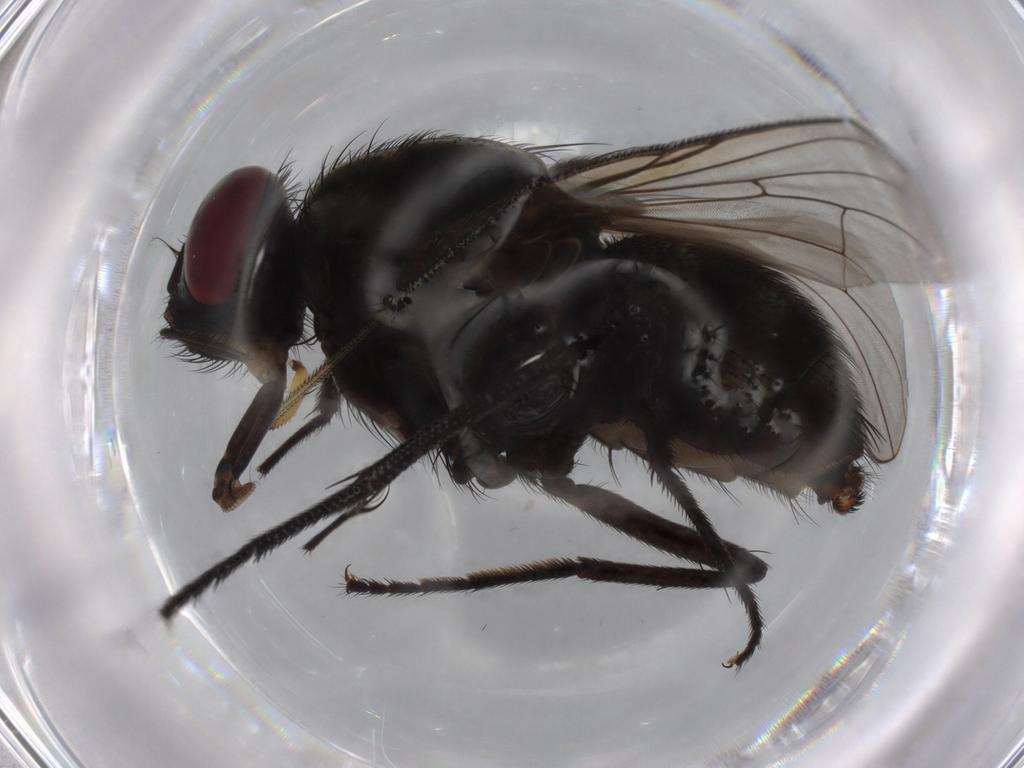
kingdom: Animalia
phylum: Arthropoda
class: Insecta
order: Diptera
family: Muscidae
